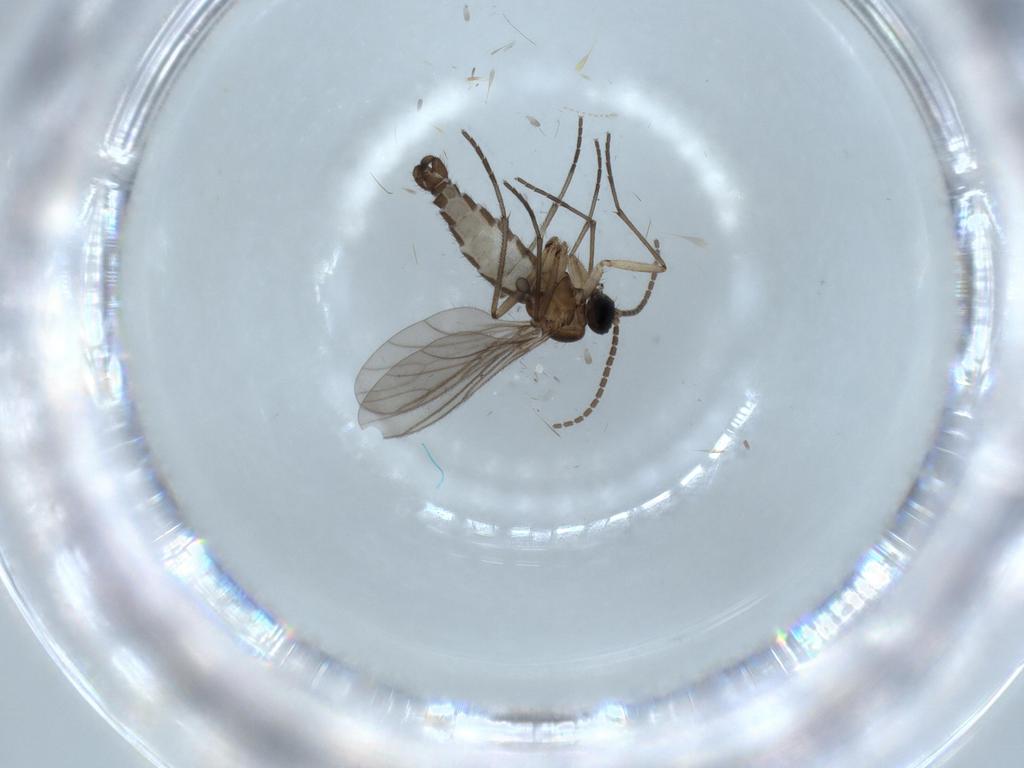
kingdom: Animalia
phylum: Arthropoda
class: Insecta
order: Diptera
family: Sciaridae
